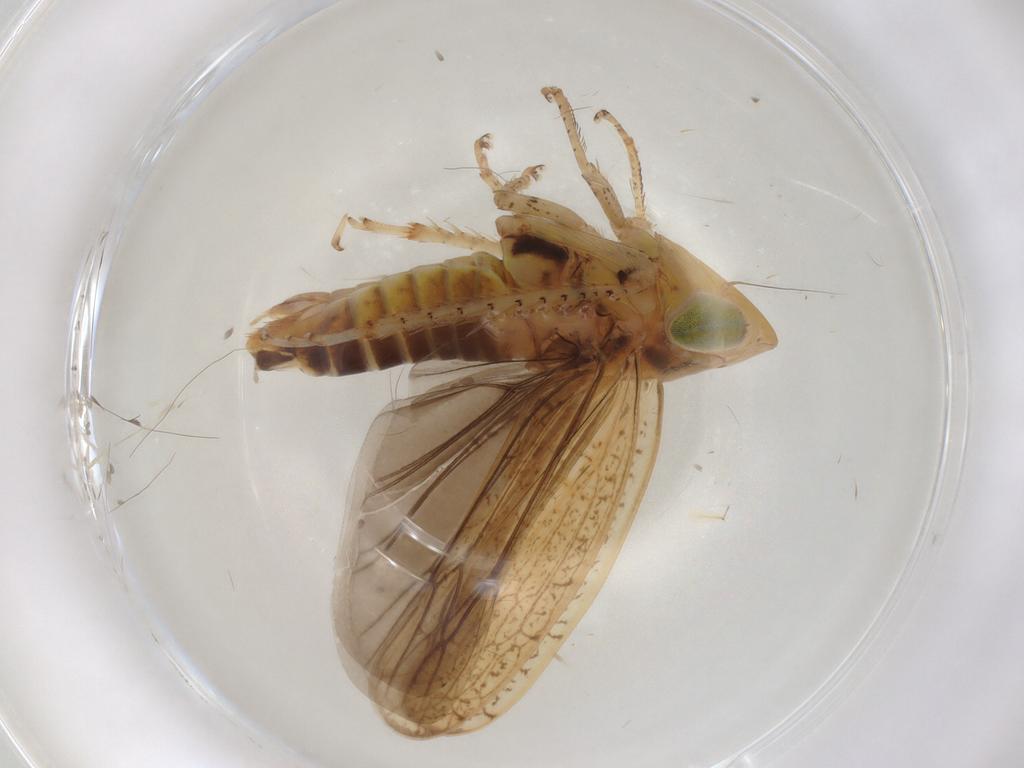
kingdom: Animalia
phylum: Arthropoda
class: Insecta
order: Hemiptera
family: Cicadellidae
